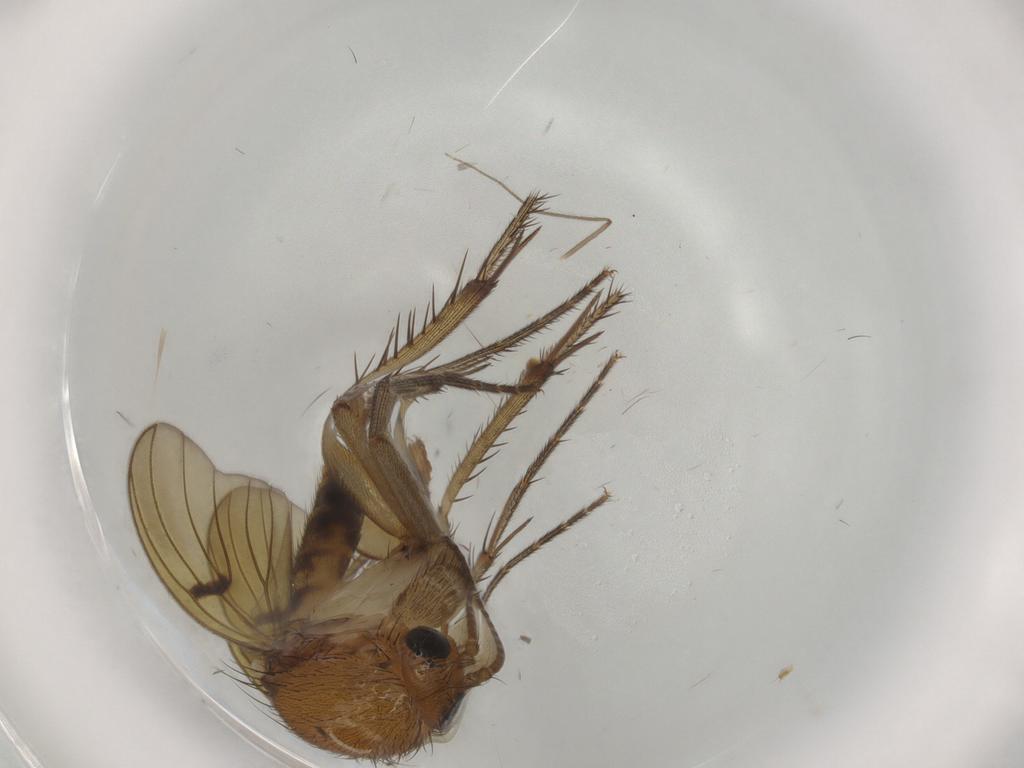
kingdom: Animalia
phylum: Arthropoda
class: Insecta
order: Diptera
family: Mycetophilidae
